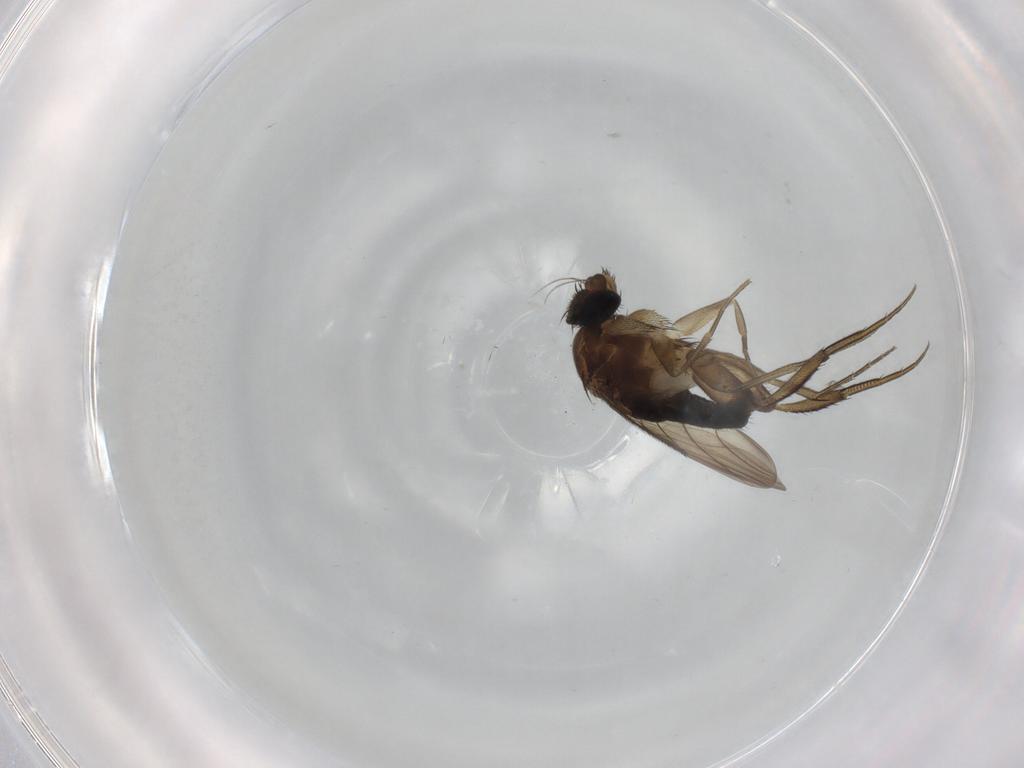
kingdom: Animalia
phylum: Arthropoda
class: Insecta
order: Diptera
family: Phoridae
